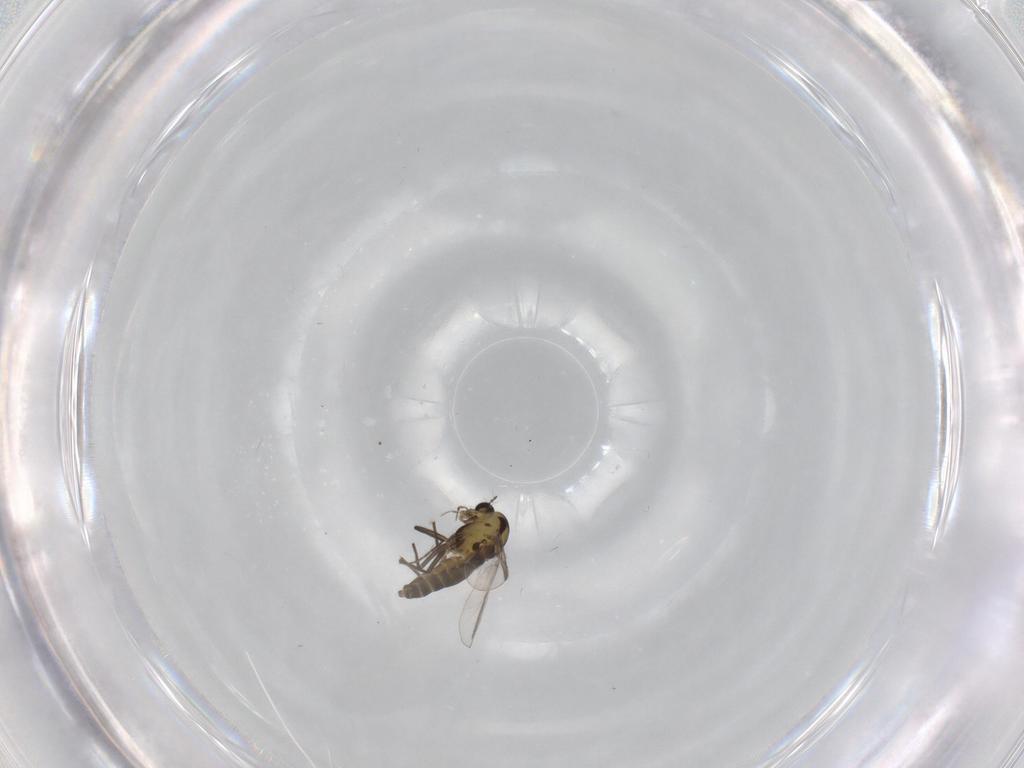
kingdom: Animalia
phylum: Arthropoda
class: Insecta
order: Diptera
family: Chironomidae
